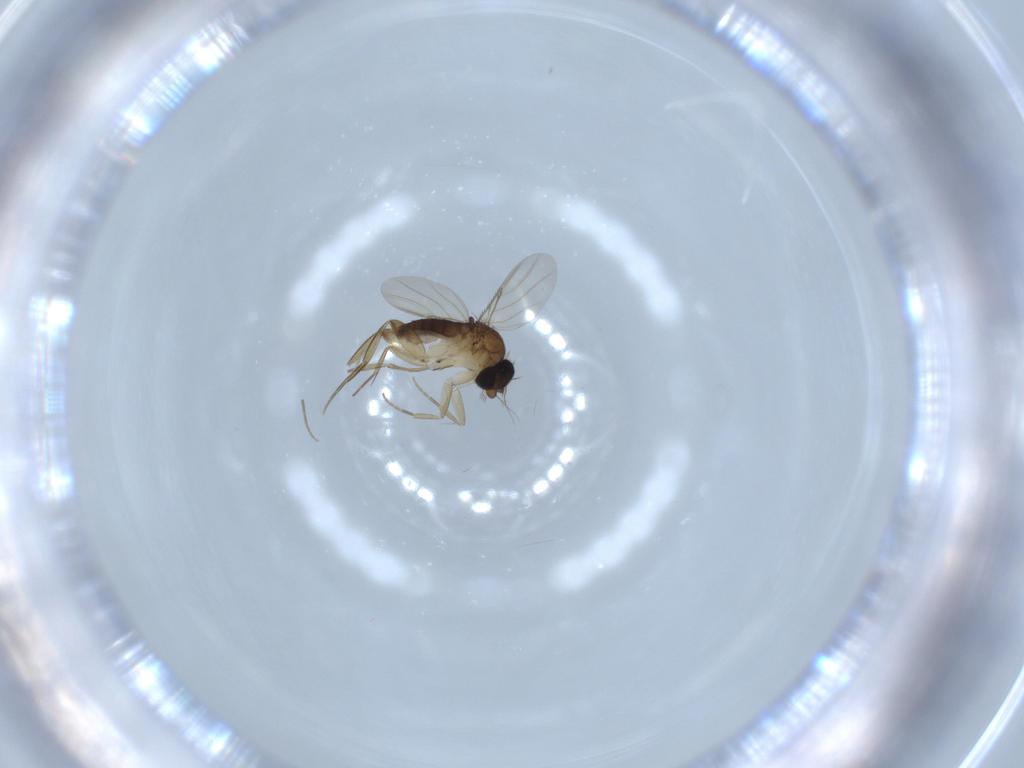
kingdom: Animalia
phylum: Arthropoda
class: Insecta
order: Diptera
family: Phoridae
